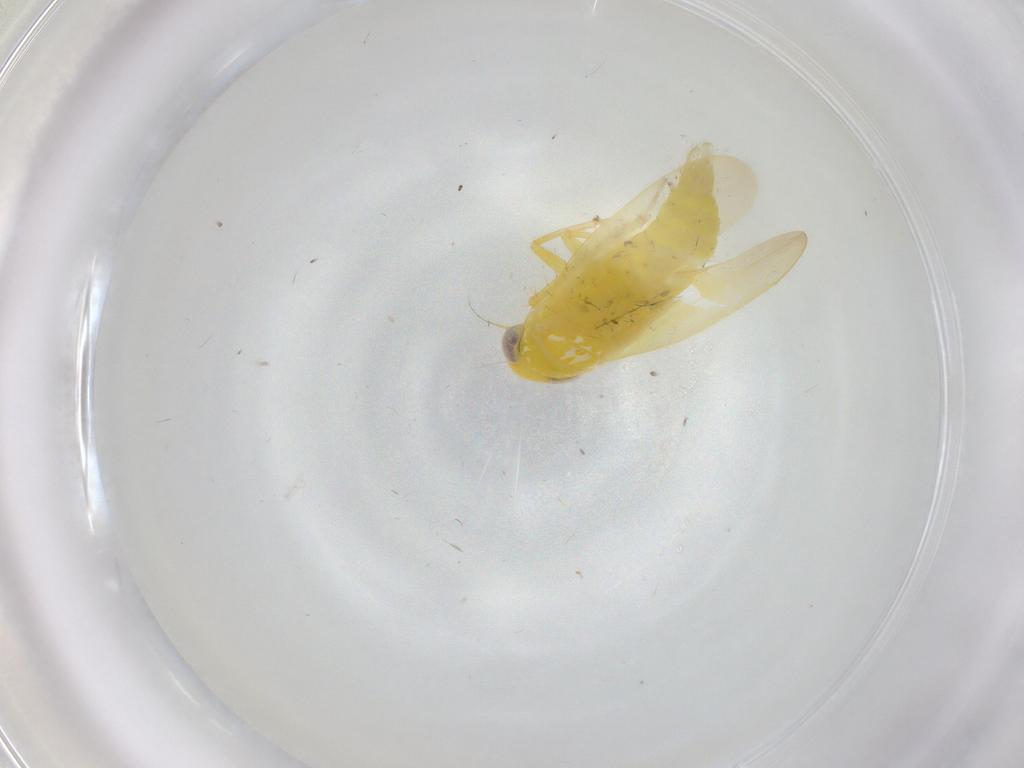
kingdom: Animalia
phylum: Arthropoda
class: Insecta
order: Hemiptera
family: Cicadellidae
